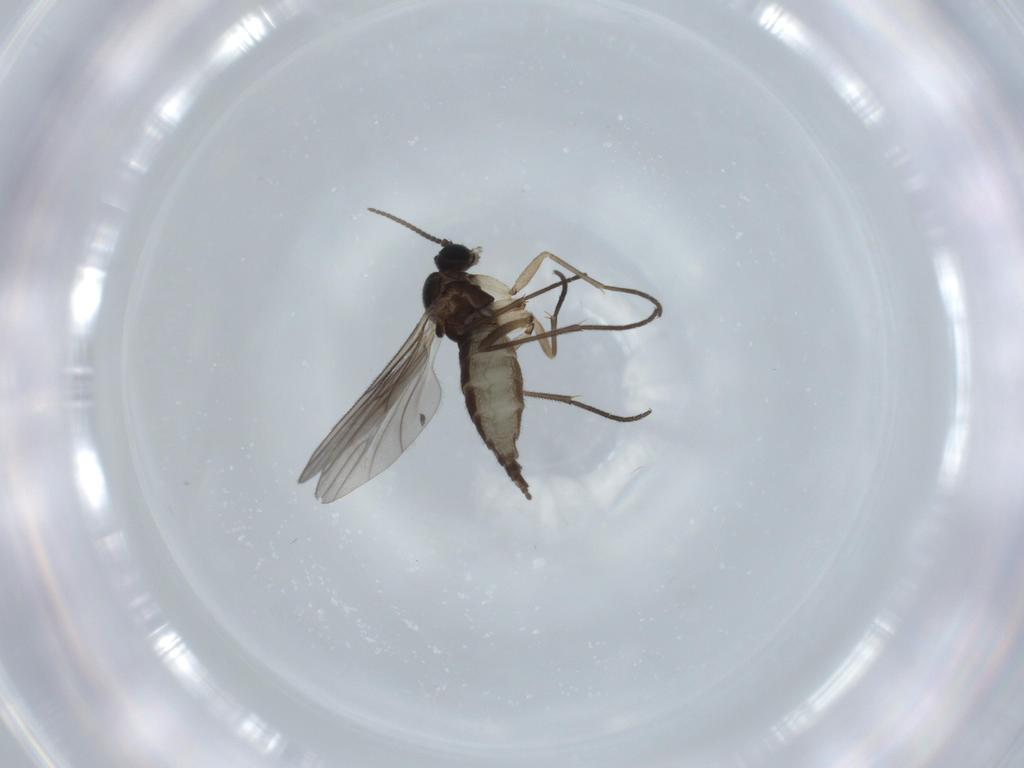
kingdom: Animalia
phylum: Arthropoda
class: Insecta
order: Diptera
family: Sciaridae
